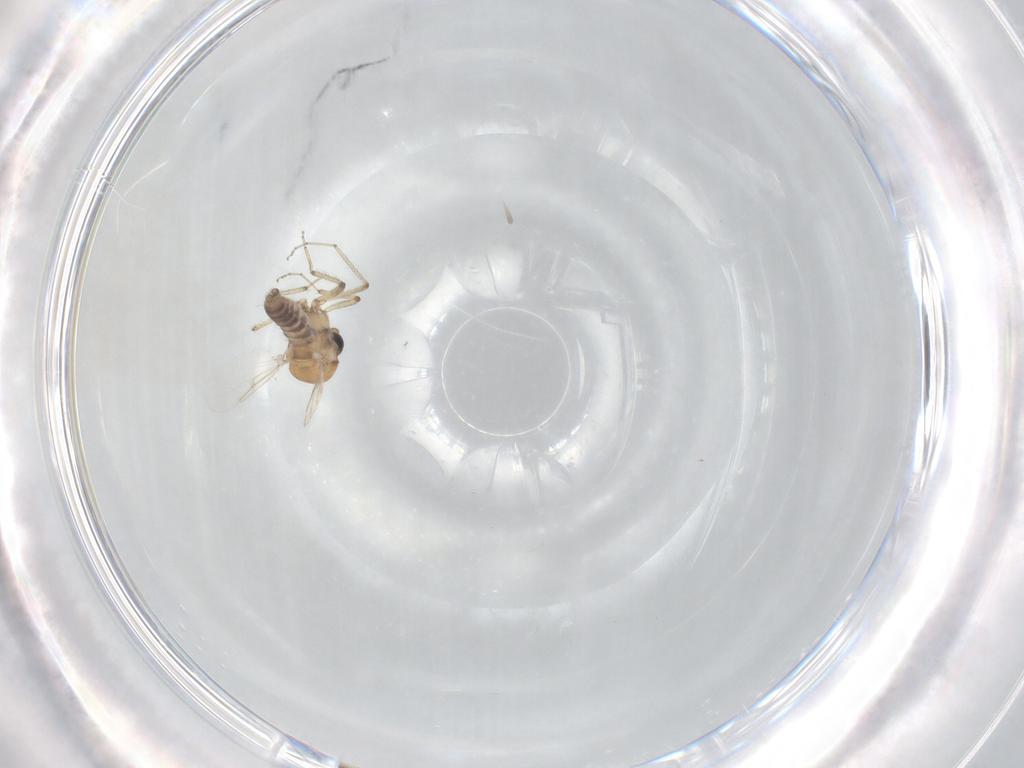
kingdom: Animalia
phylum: Arthropoda
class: Insecta
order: Diptera
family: Ceratopogonidae
